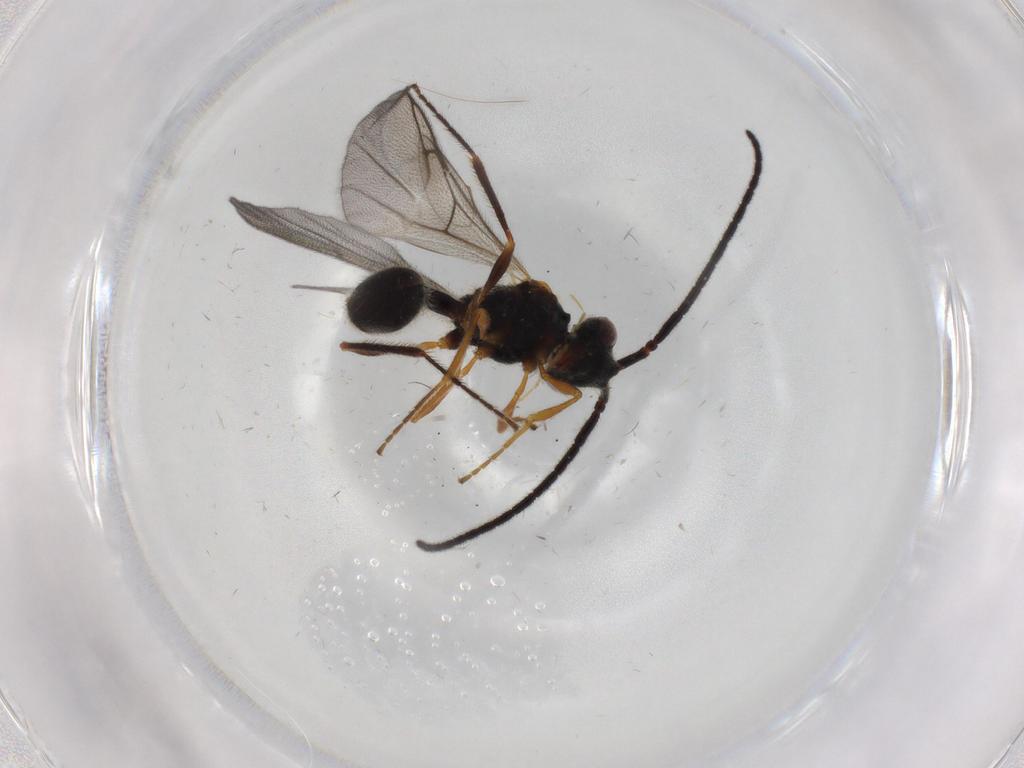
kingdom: Animalia
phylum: Arthropoda
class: Insecta
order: Hymenoptera
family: Diapriidae
